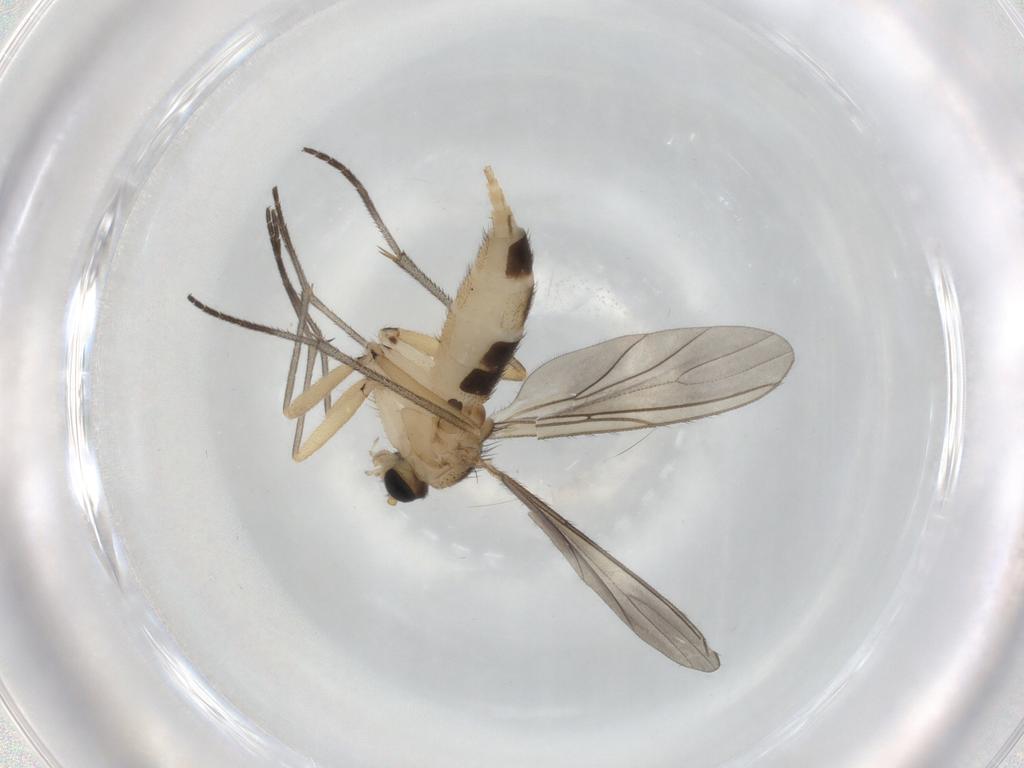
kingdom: Animalia
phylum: Arthropoda
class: Insecta
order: Diptera
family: Sciaridae
